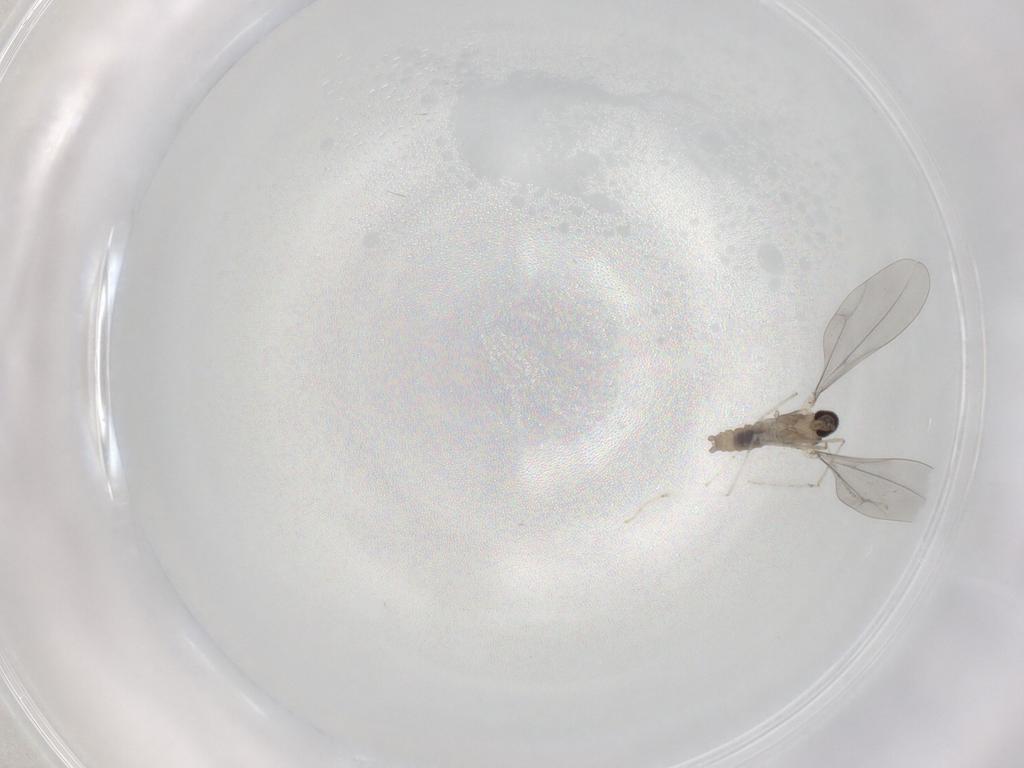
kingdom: Animalia
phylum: Arthropoda
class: Insecta
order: Diptera
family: Cecidomyiidae
